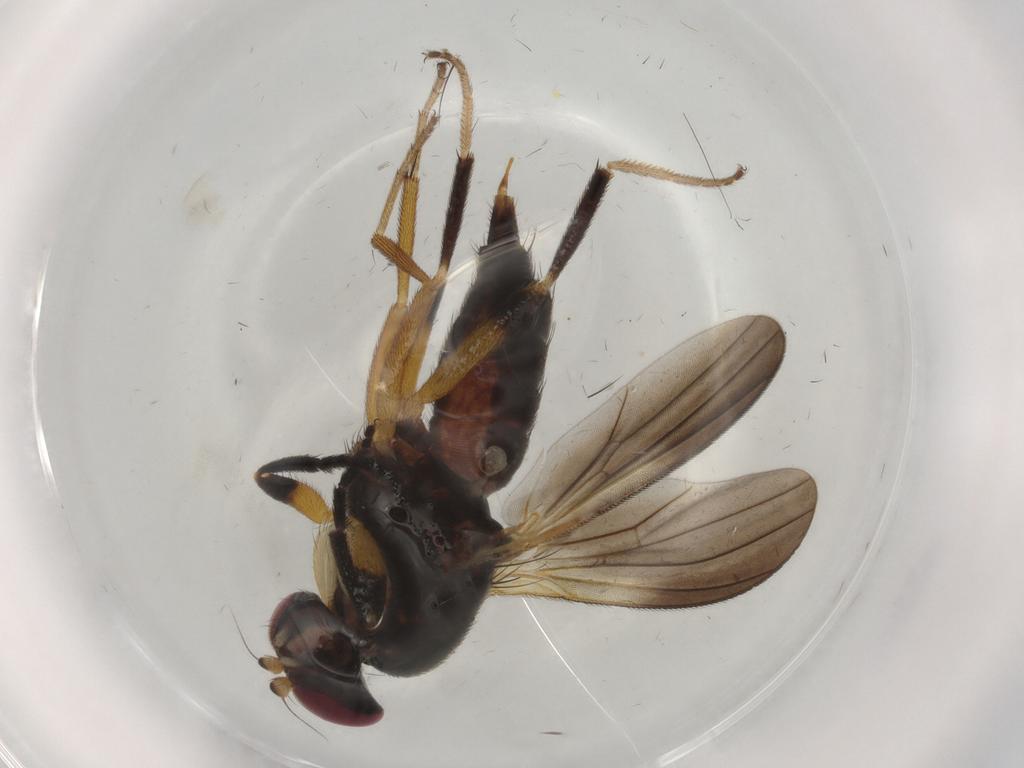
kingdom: Animalia
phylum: Arthropoda
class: Insecta
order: Diptera
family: Clusiidae
